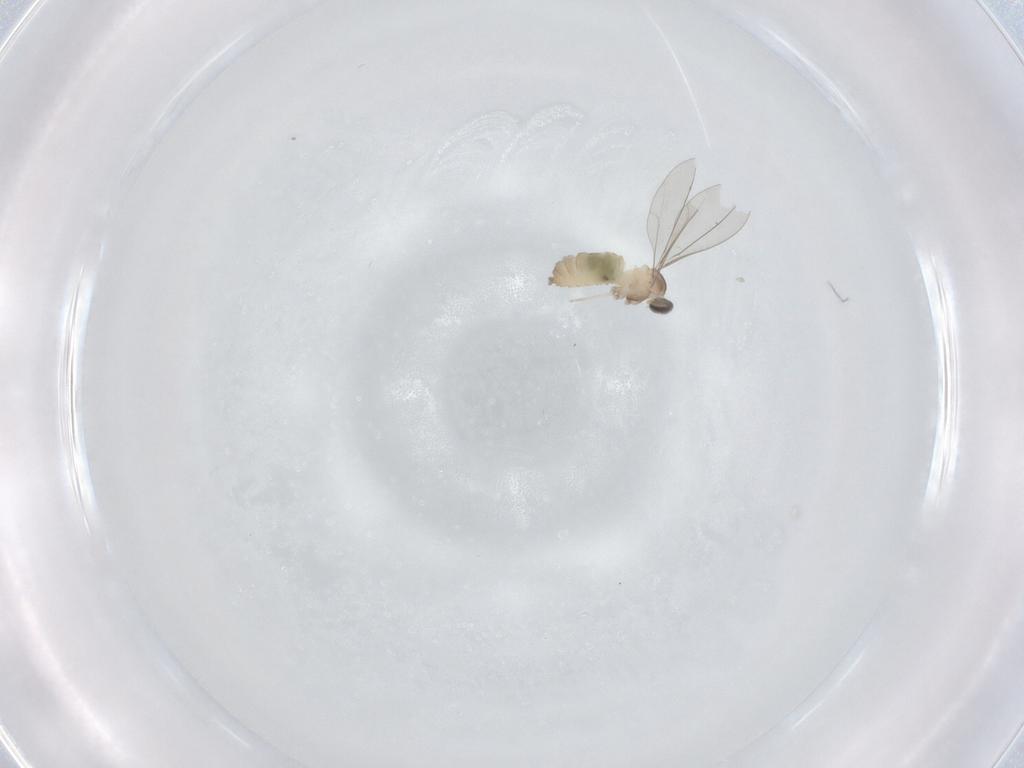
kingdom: Animalia
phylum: Arthropoda
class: Insecta
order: Diptera
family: Cecidomyiidae
